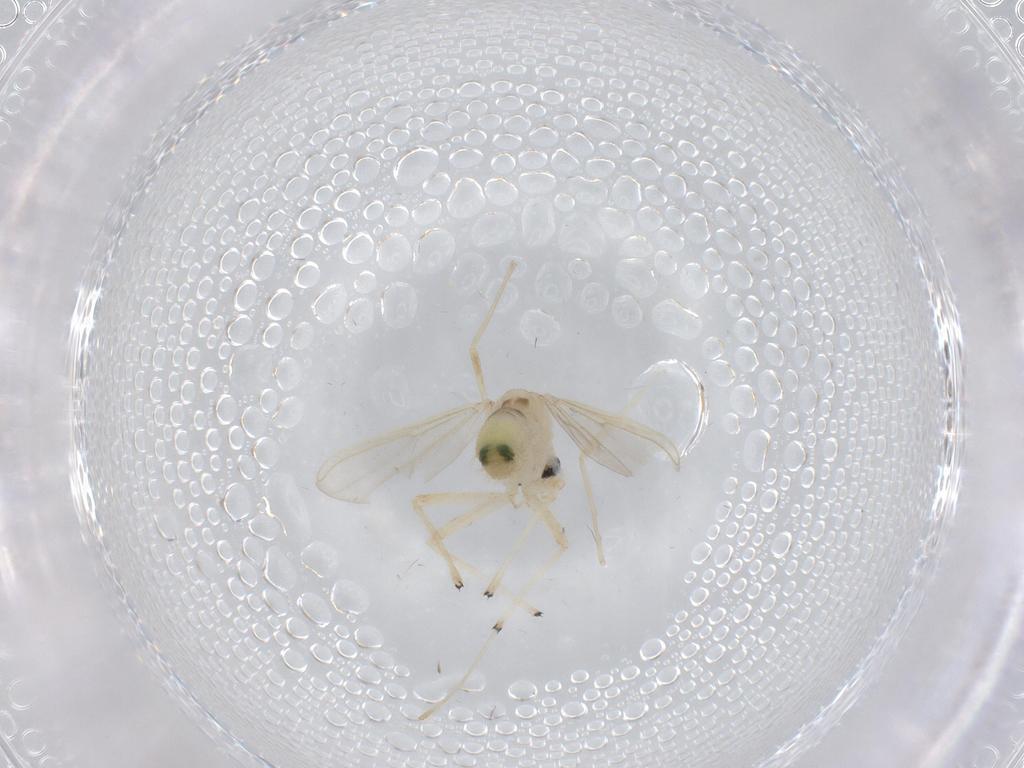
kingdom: Animalia
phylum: Arthropoda
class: Insecta
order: Diptera
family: Chironomidae
